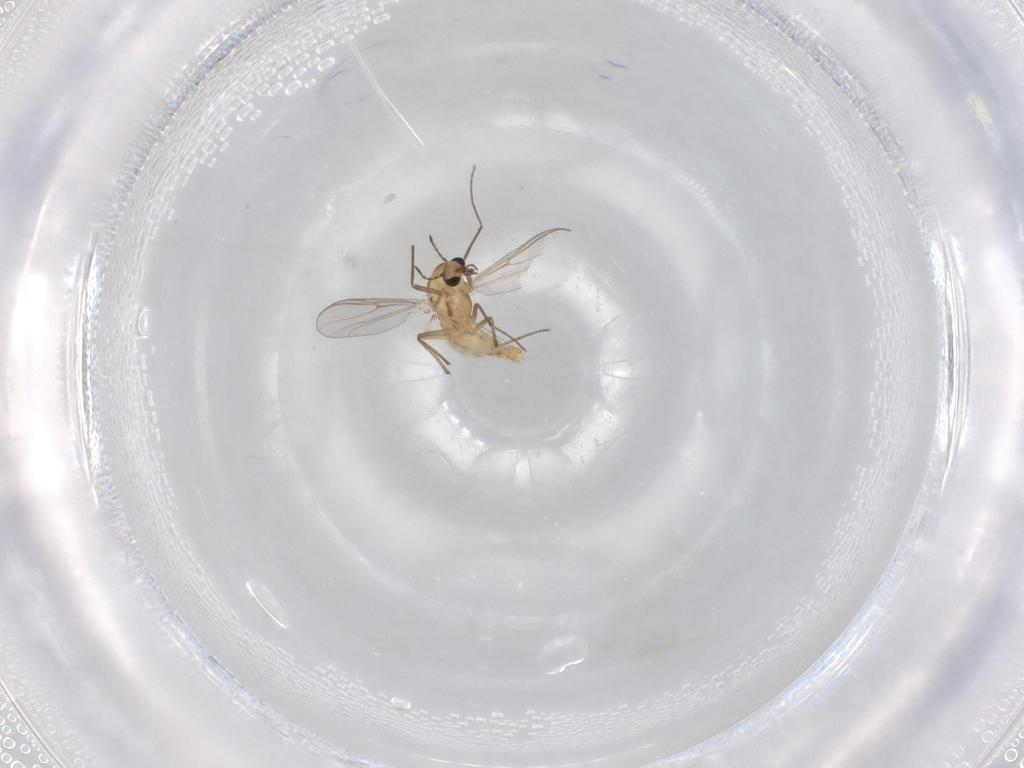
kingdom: Animalia
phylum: Arthropoda
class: Insecta
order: Diptera
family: Chironomidae
